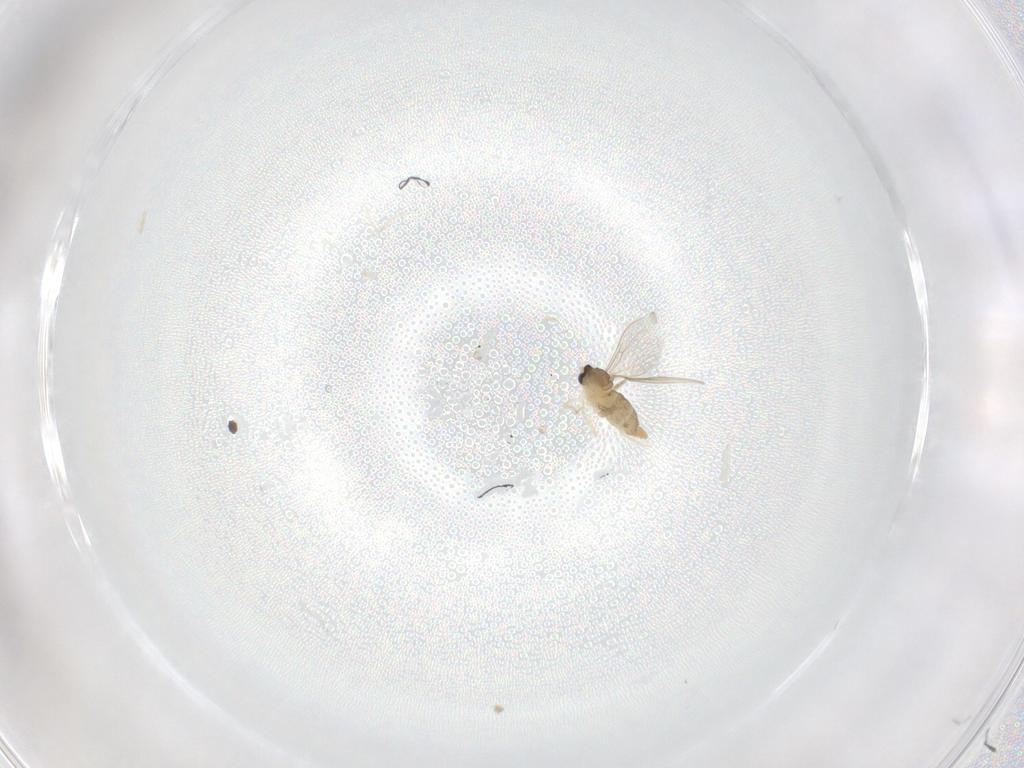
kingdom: Animalia
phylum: Arthropoda
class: Insecta
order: Diptera
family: Cecidomyiidae
